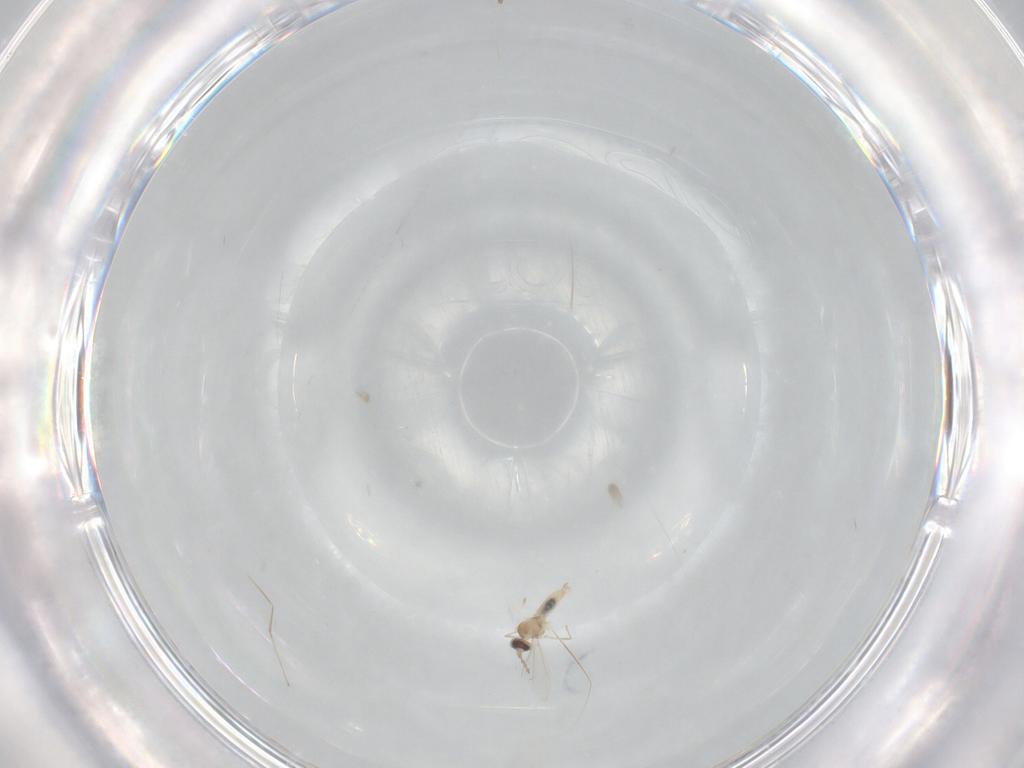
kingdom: Animalia
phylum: Arthropoda
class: Insecta
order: Diptera
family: Cecidomyiidae
